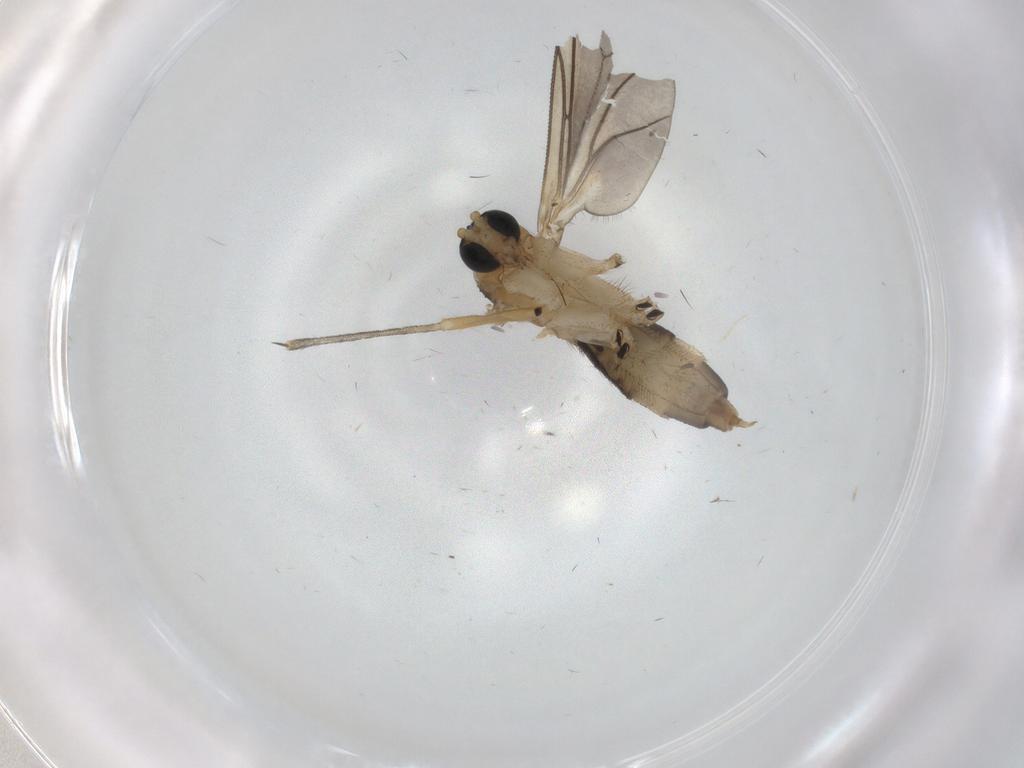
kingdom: Animalia
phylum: Arthropoda
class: Insecta
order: Diptera
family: Sciaridae
